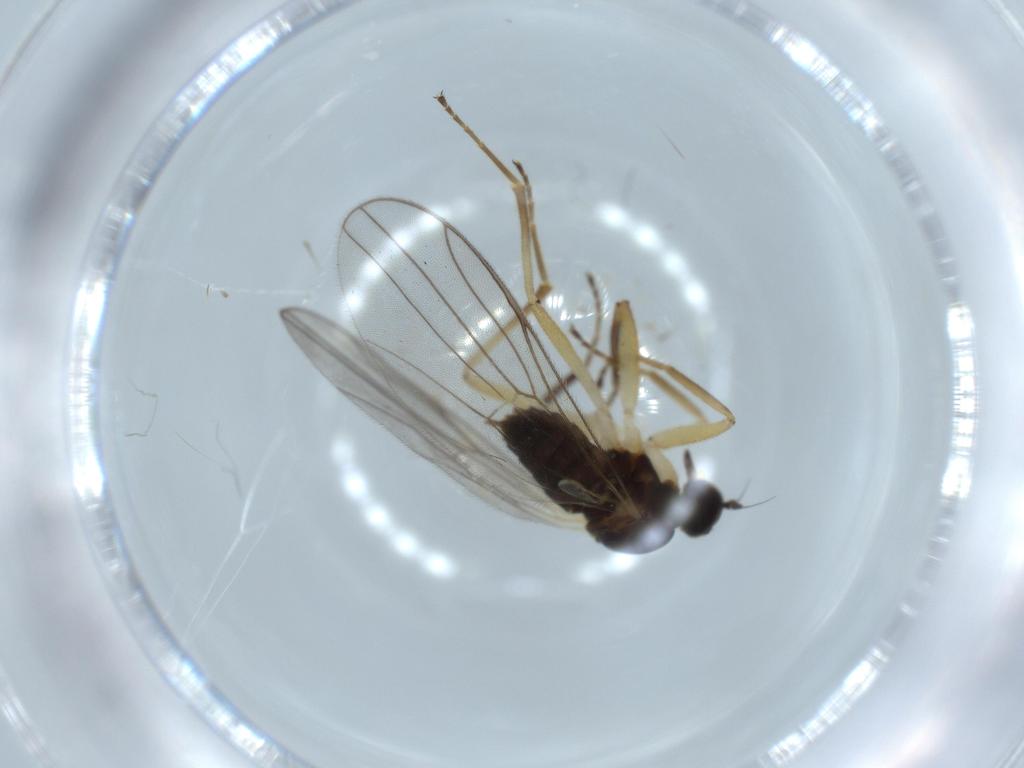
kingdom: Animalia
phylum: Arthropoda
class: Insecta
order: Diptera
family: Hybotidae
